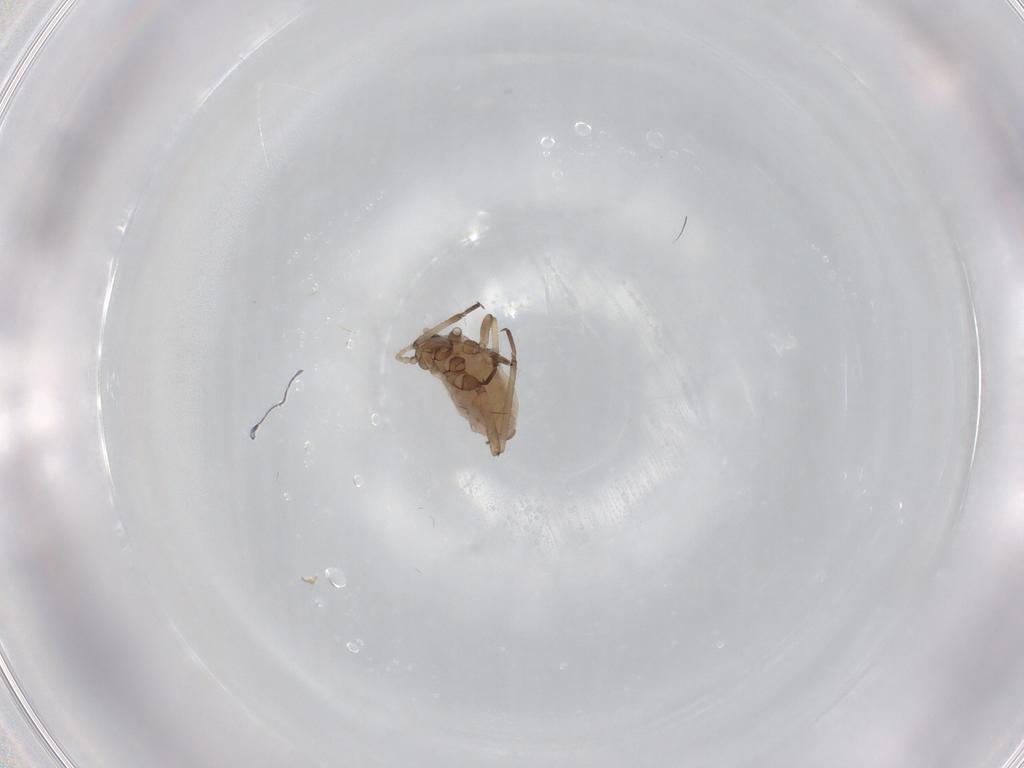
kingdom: Animalia
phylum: Arthropoda
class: Insecta
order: Hemiptera
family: Aphididae
